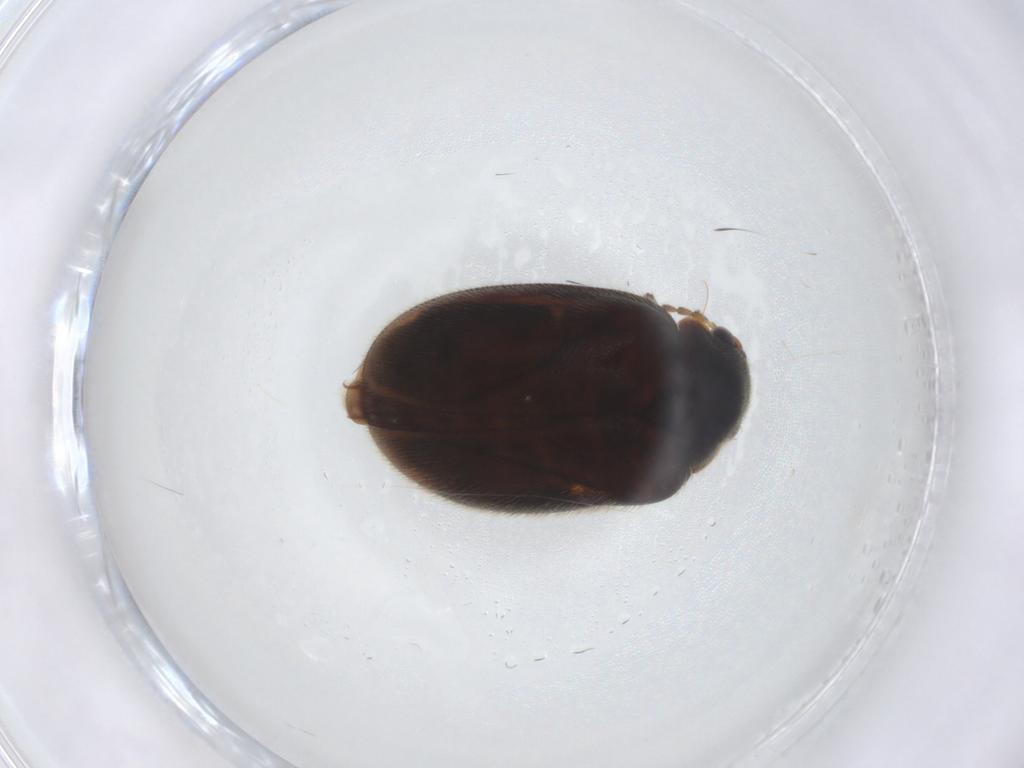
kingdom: Animalia
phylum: Arthropoda
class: Insecta
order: Coleoptera
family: Scirtidae
